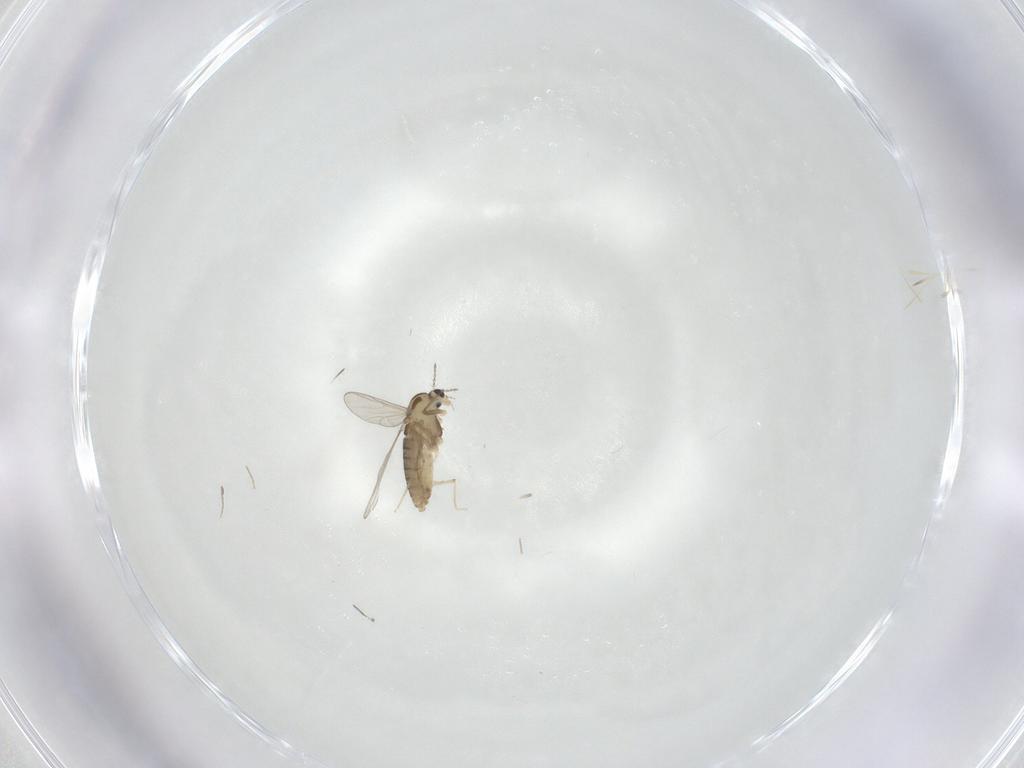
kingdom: Animalia
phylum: Arthropoda
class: Insecta
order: Diptera
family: Chironomidae
